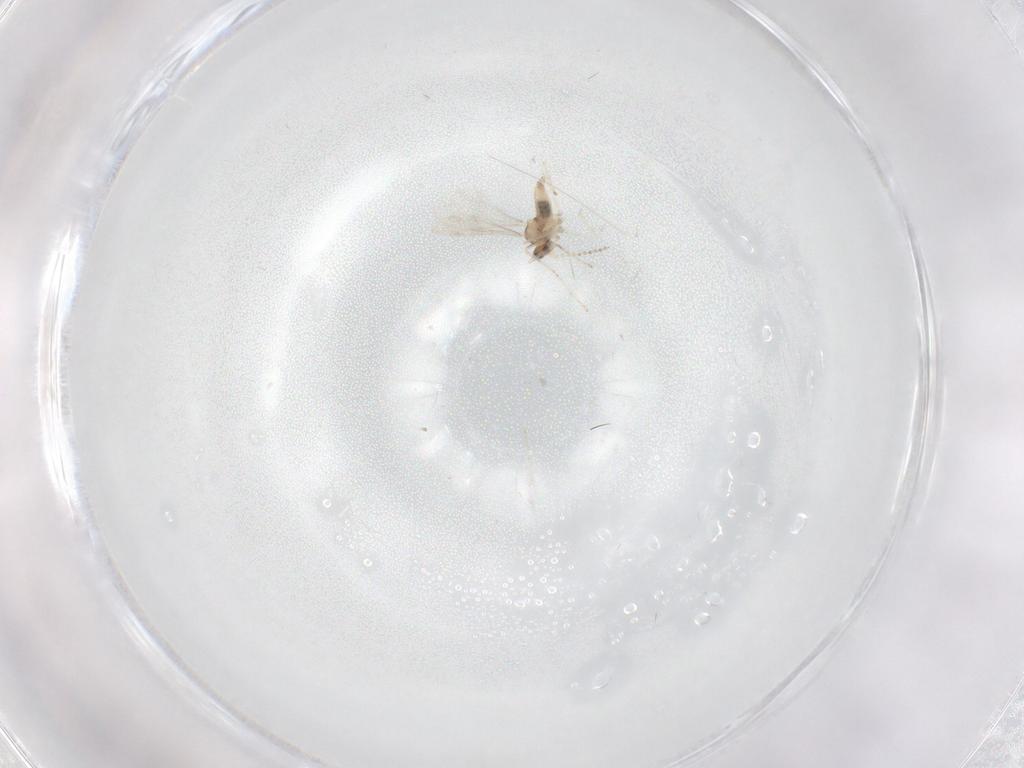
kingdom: Animalia
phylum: Arthropoda
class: Insecta
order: Diptera
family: Cecidomyiidae
